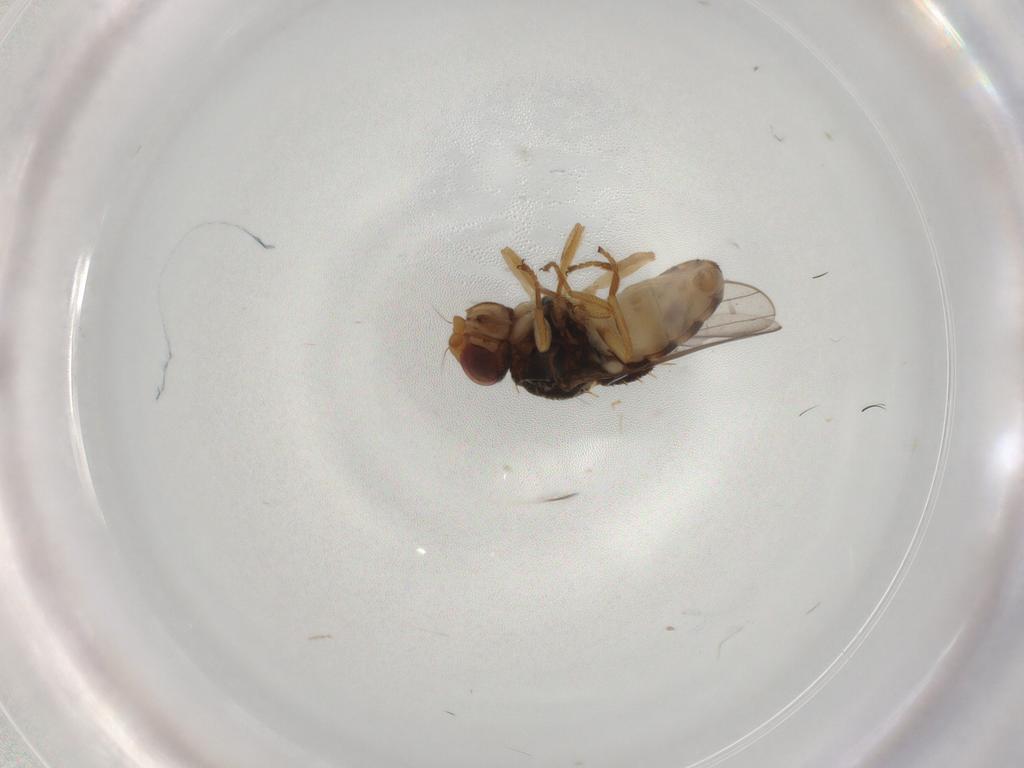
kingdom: Animalia
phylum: Arthropoda
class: Insecta
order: Diptera
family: Chloropidae
